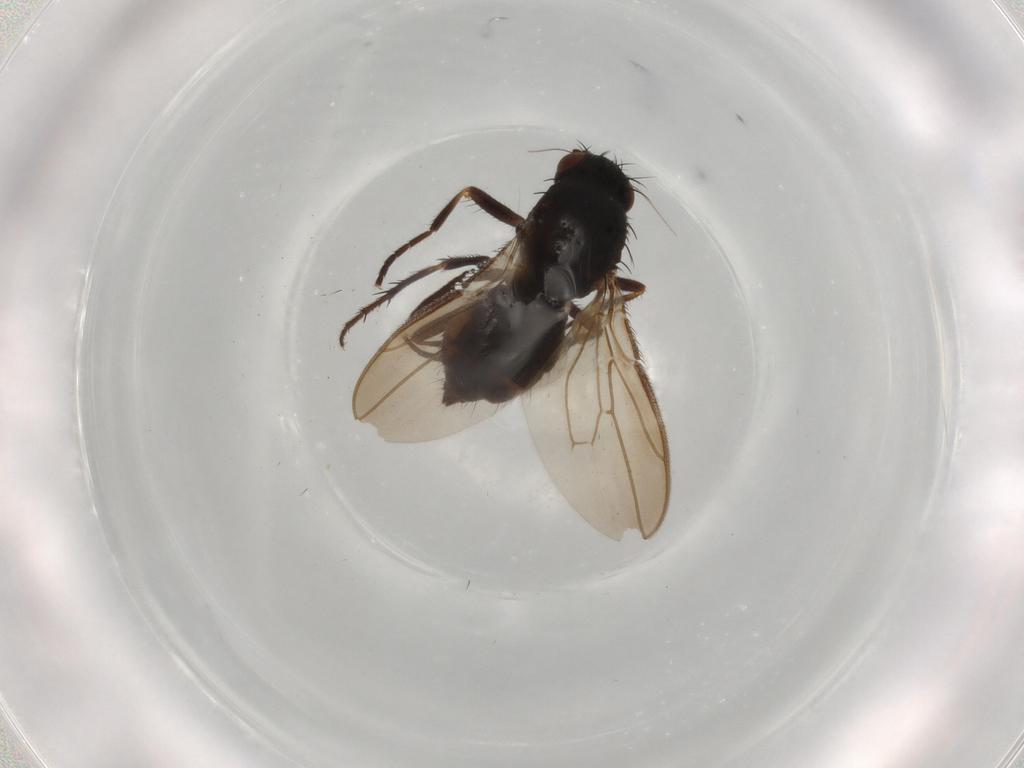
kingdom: Animalia
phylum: Arthropoda
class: Insecta
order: Diptera
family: Sphaeroceridae
